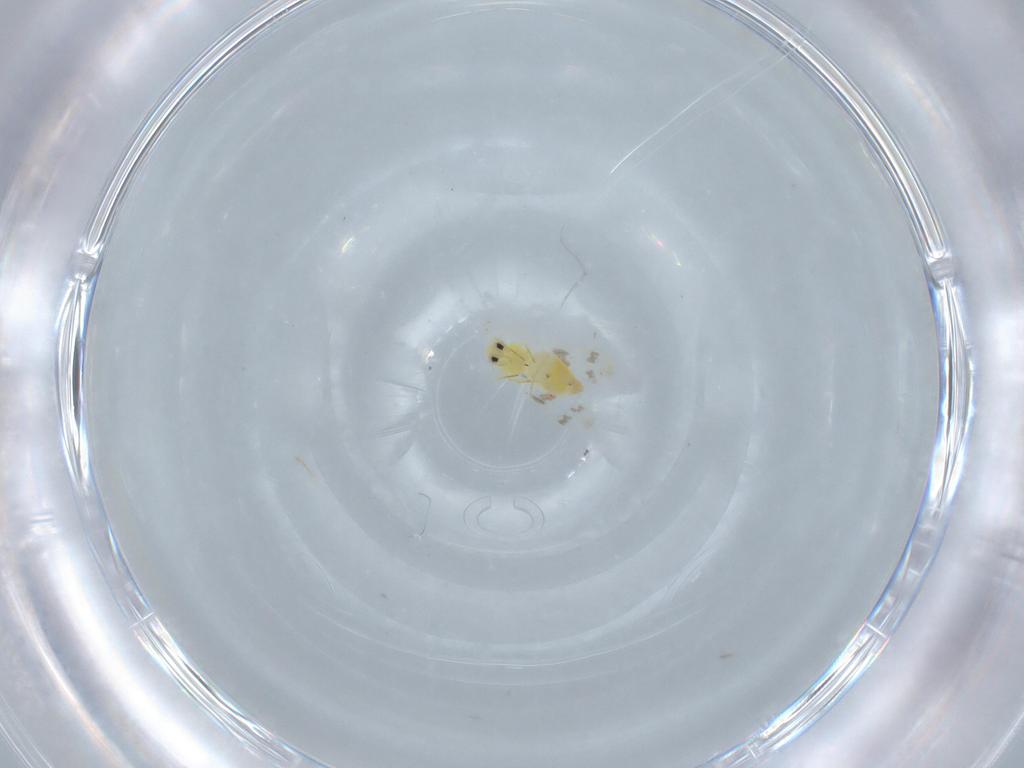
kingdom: Animalia
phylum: Arthropoda
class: Insecta
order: Hemiptera
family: Aleyrodidae
